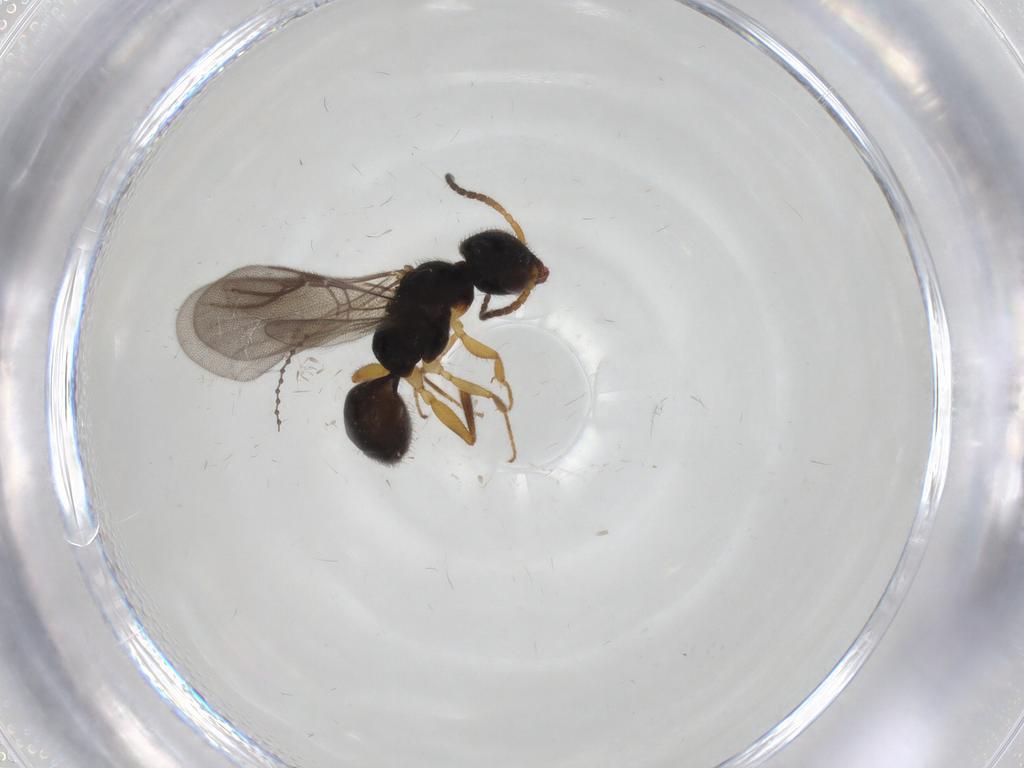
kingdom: Animalia
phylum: Arthropoda
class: Insecta
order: Hymenoptera
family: Bethylidae
